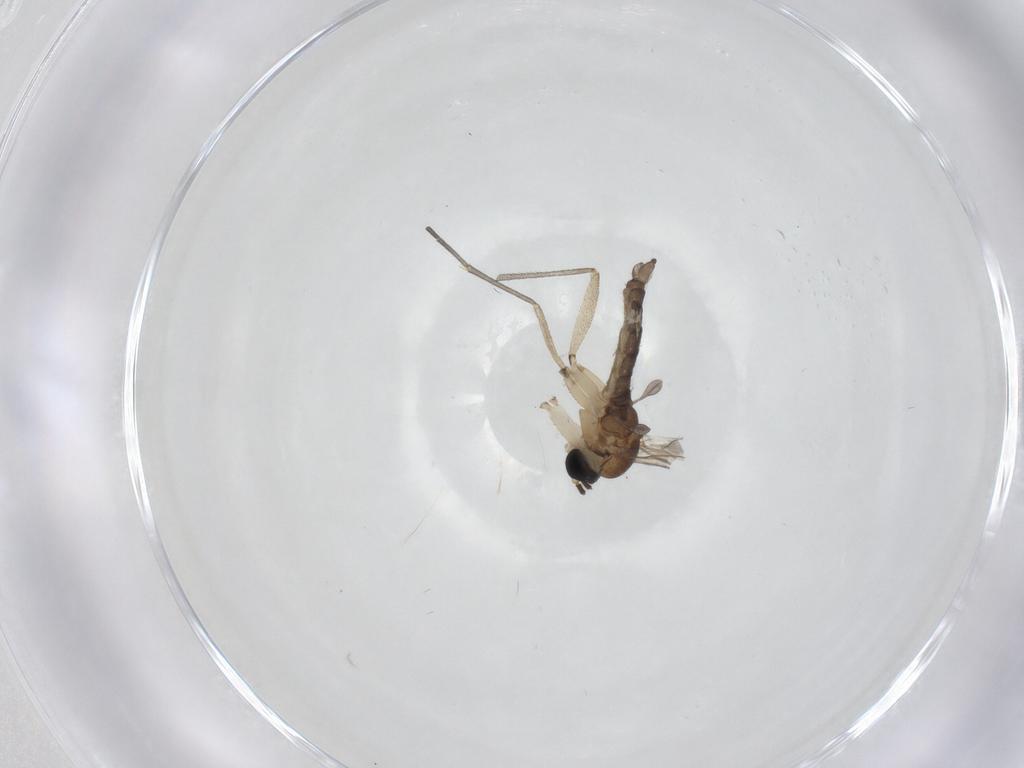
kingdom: Animalia
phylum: Arthropoda
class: Insecta
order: Diptera
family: Sciaridae
